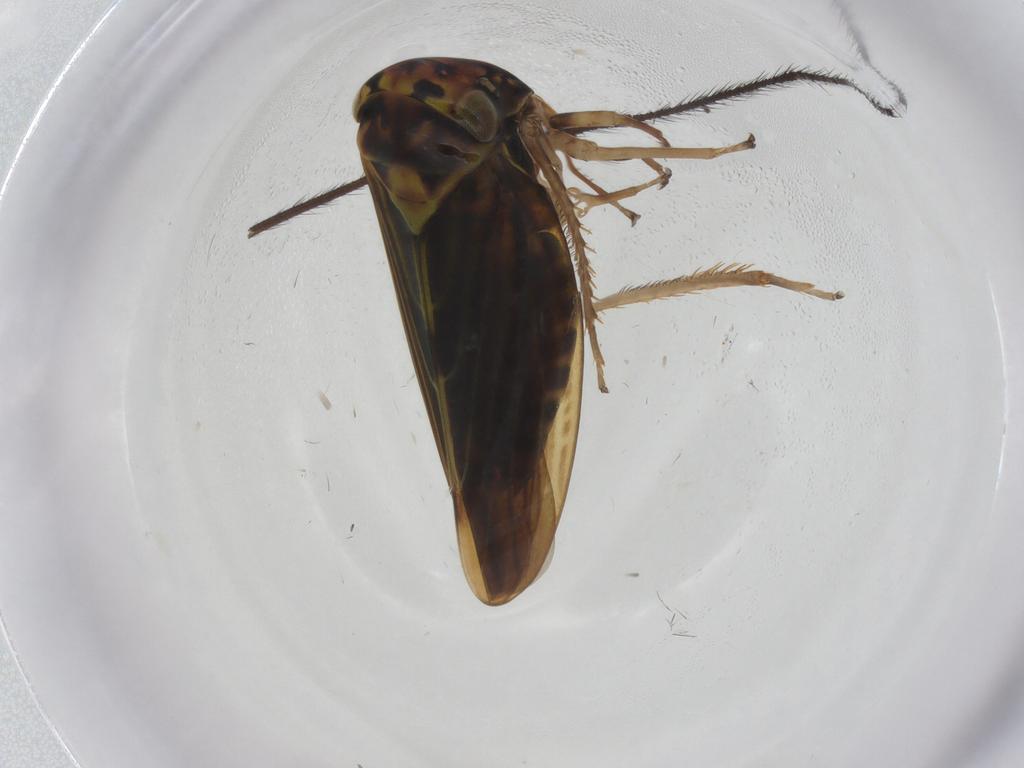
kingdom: Animalia
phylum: Arthropoda
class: Insecta
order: Hemiptera
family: Cicadellidae
